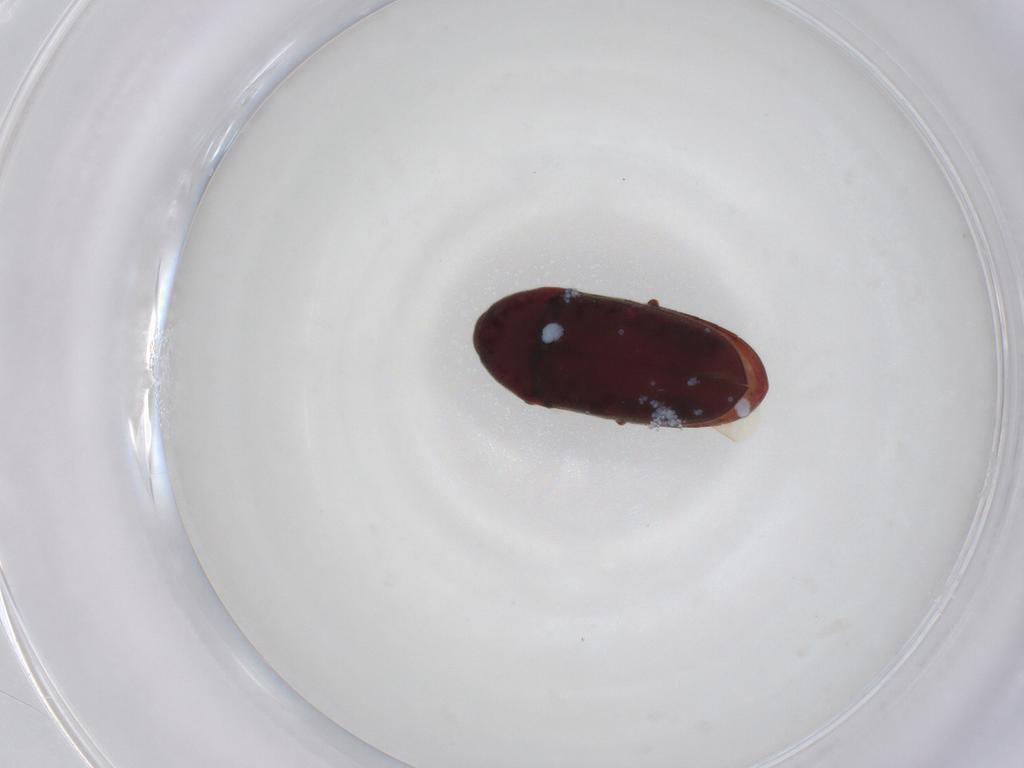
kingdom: Animalia
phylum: Arthropoda
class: Insecta
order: Coleoptera
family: Throscidae
